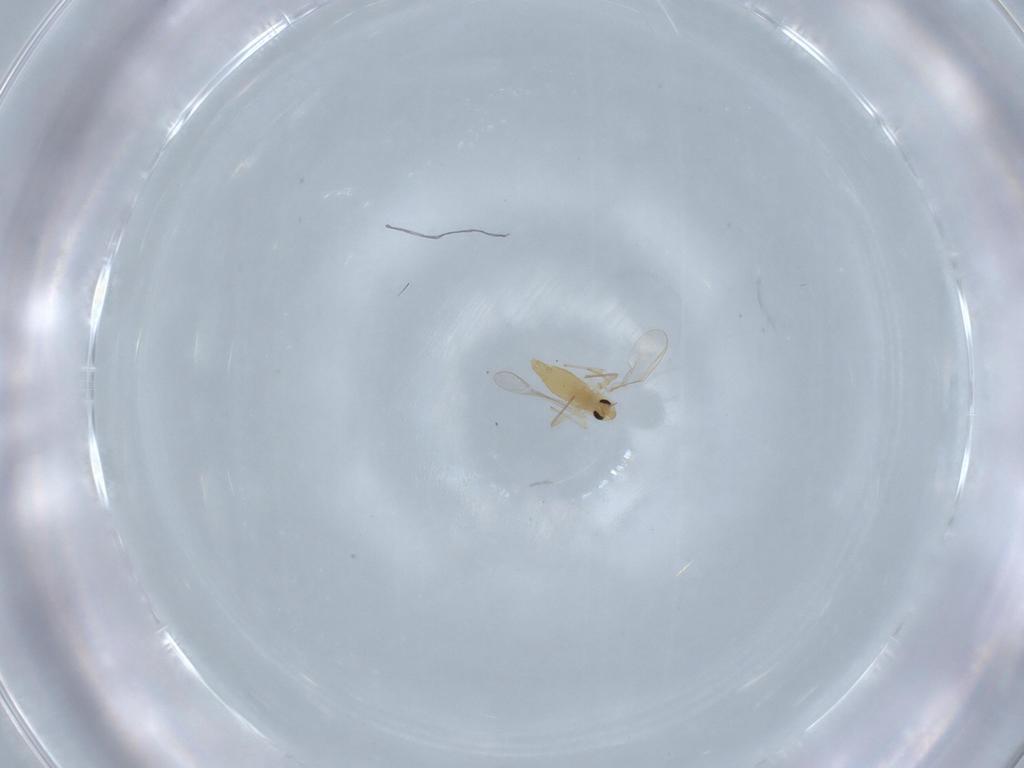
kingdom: Animalia
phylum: Arthropoda
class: Insecta
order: Diptera
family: Chironomidae
